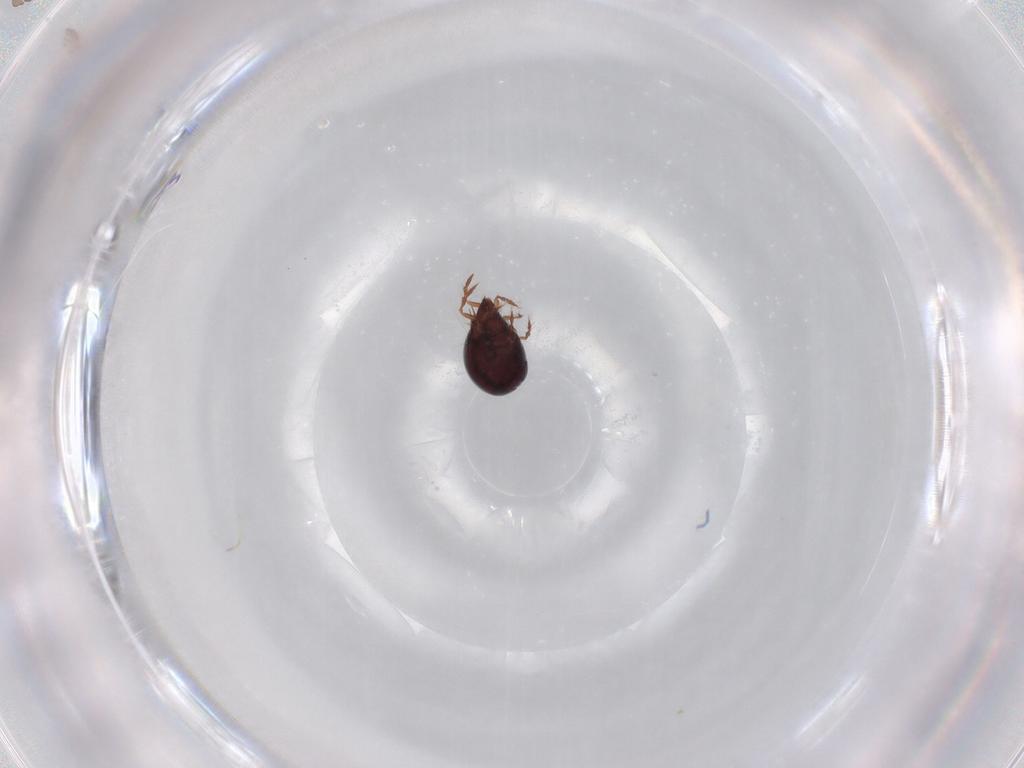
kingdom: Animalia
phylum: Arthropoda
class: Arachnida
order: Sarcoptiformes
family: Ceratoppiidae
